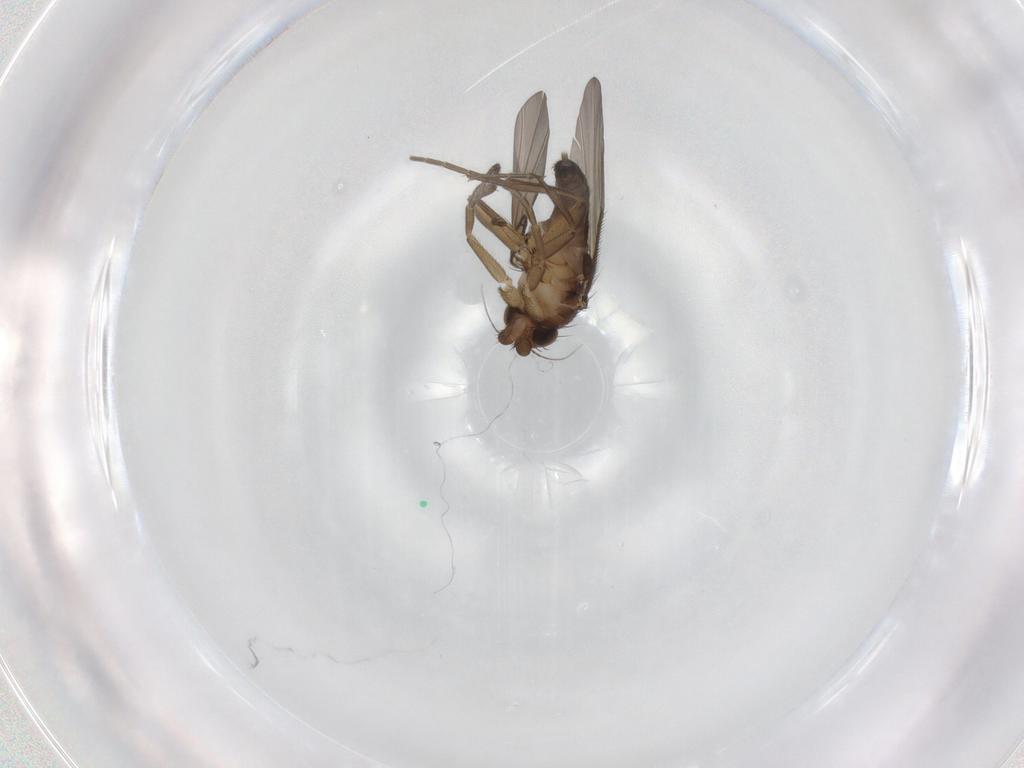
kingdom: Animalia
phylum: Arthropoda
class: Insecta
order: Diptera
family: Phoridae
